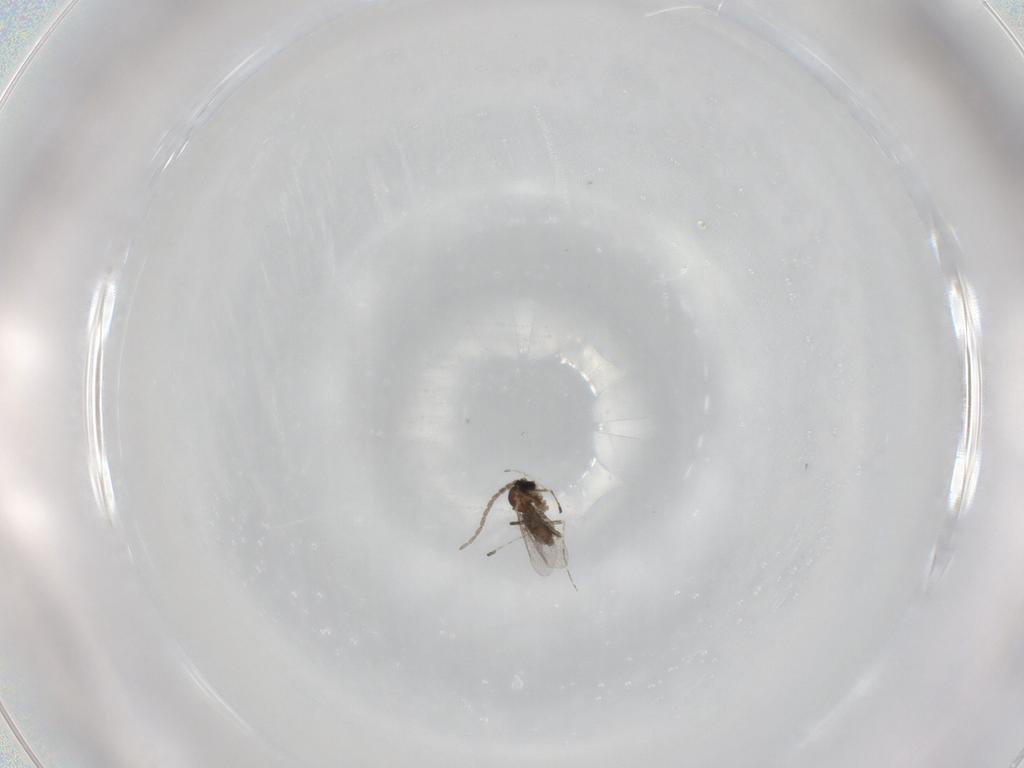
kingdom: Animalia
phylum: Arthropoda
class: Insecta
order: Diptera
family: Cecidomyiidae
